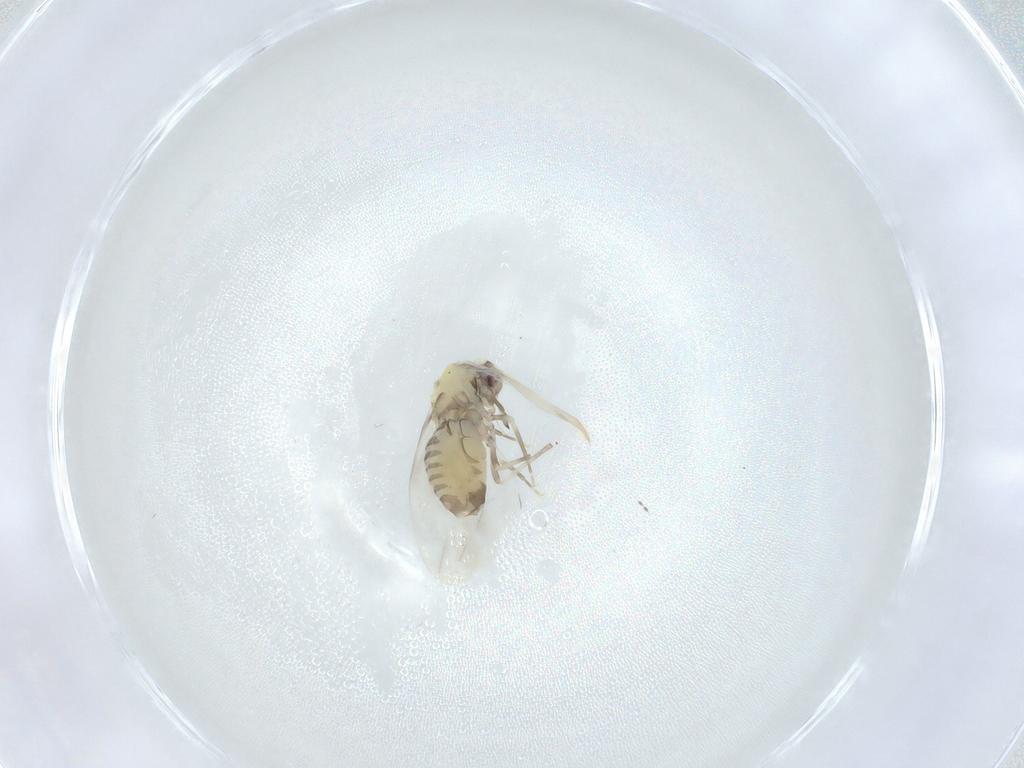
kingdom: Animalia
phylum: Arthropoda
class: Insecta
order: Hemiptera
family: Aleyrodidae
